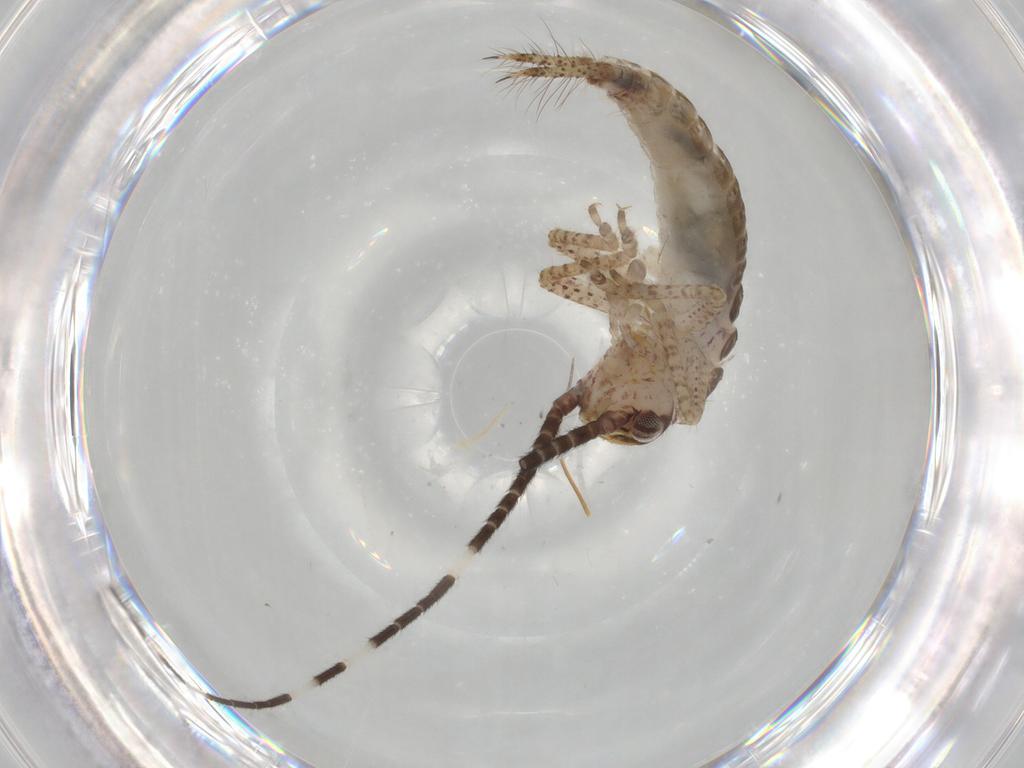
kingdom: Animalia
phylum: Arthropoda
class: Insecta
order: Orthoptera
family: Gryllidae
